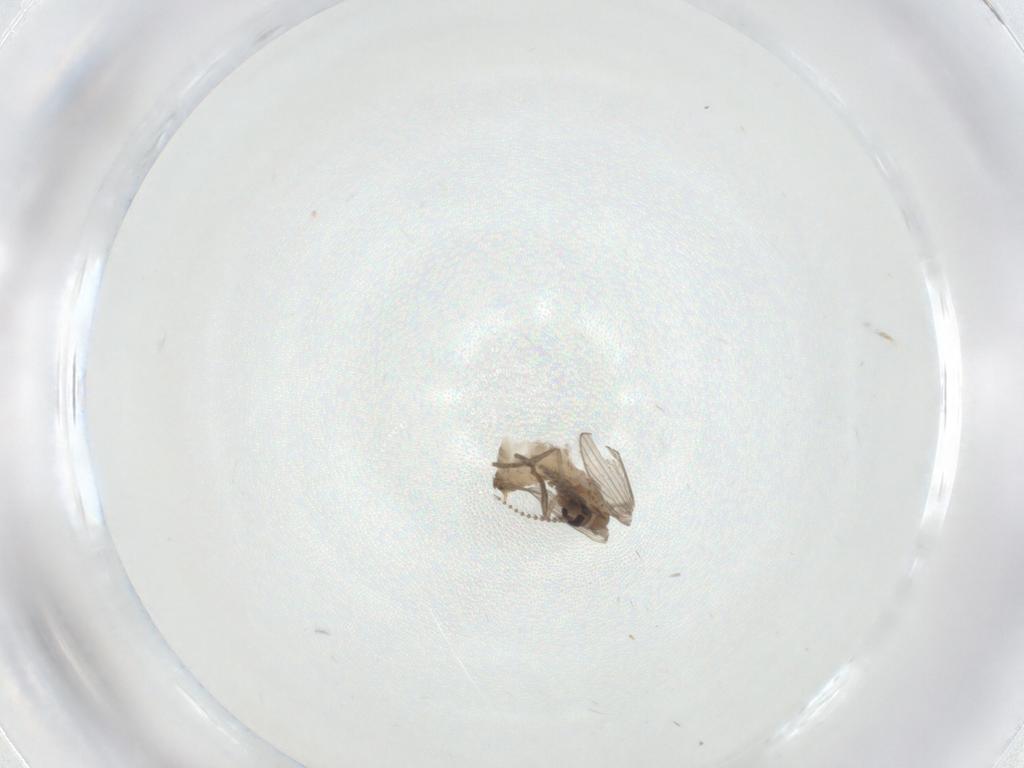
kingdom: Animalia
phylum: Arthropoda
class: Insecta
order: Diptera
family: Psychodidae
